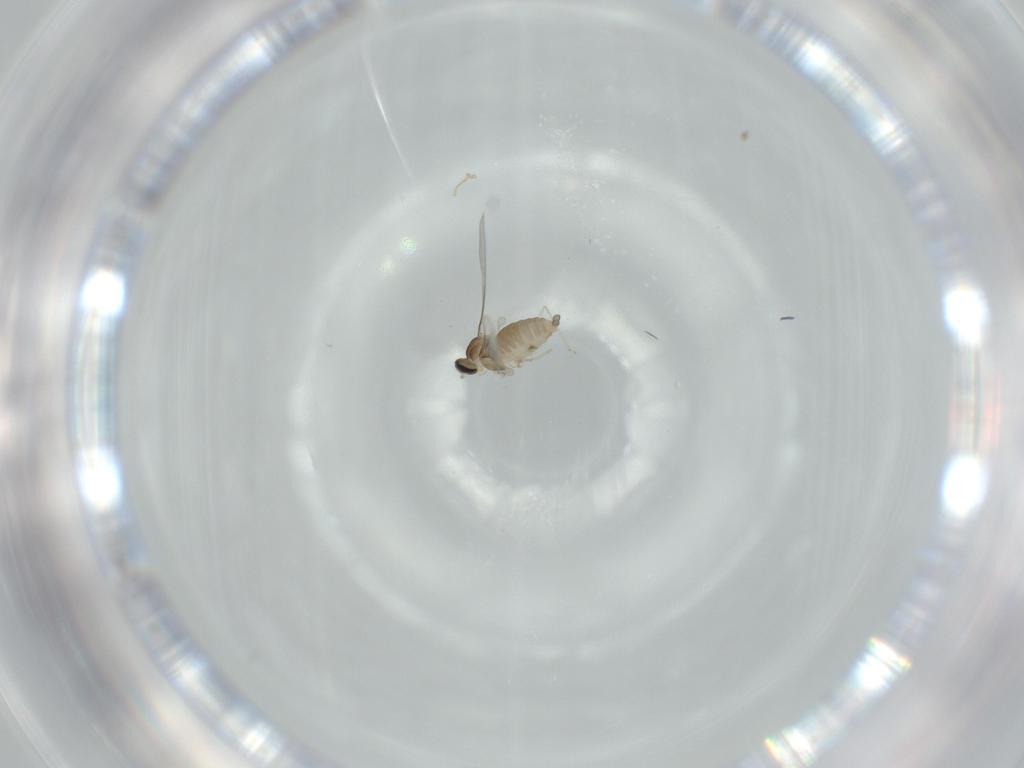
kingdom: Animalia
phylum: Arthropoda
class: Insecta
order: Diptera
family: Cecidomyiidae
